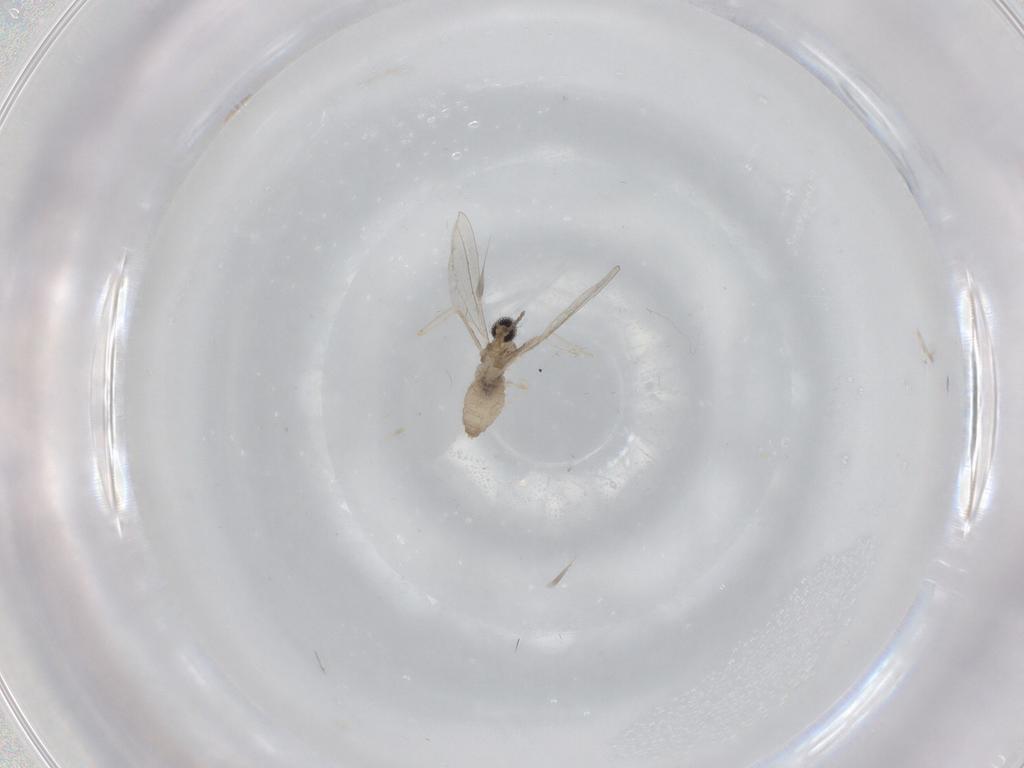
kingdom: Animalia
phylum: Arthropoda
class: Insecta
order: Diptera
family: Cecidomyiidae
